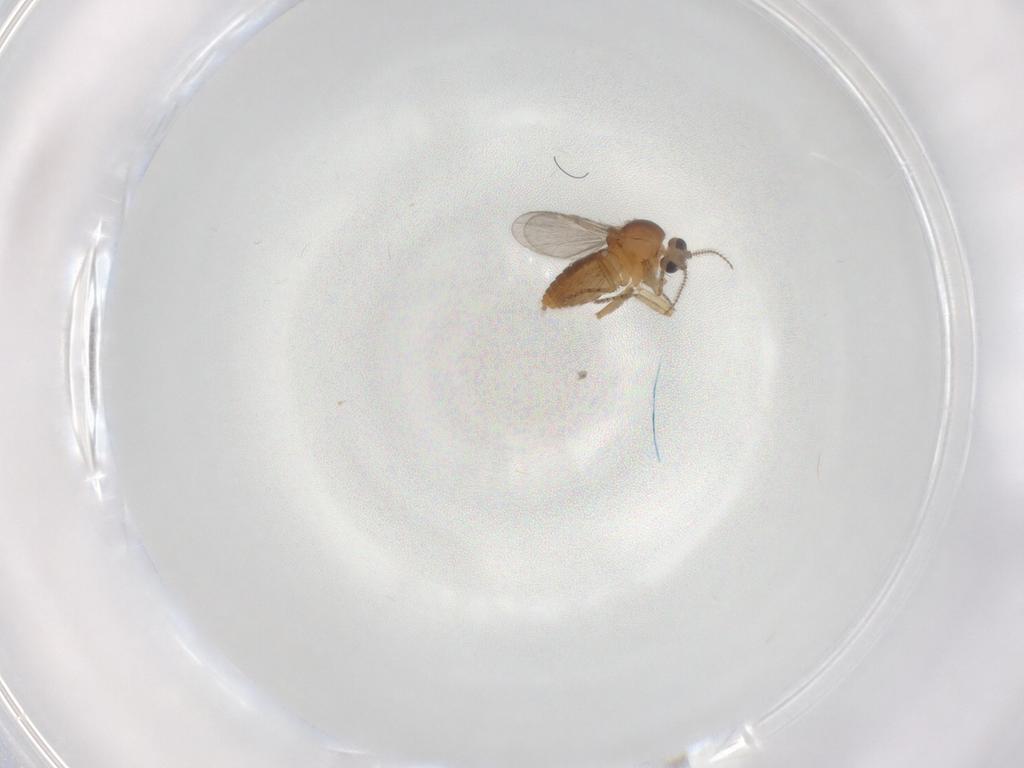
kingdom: Animalia
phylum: Arthropoda
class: Insecta
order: Diptera
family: Ceratopogonidae
